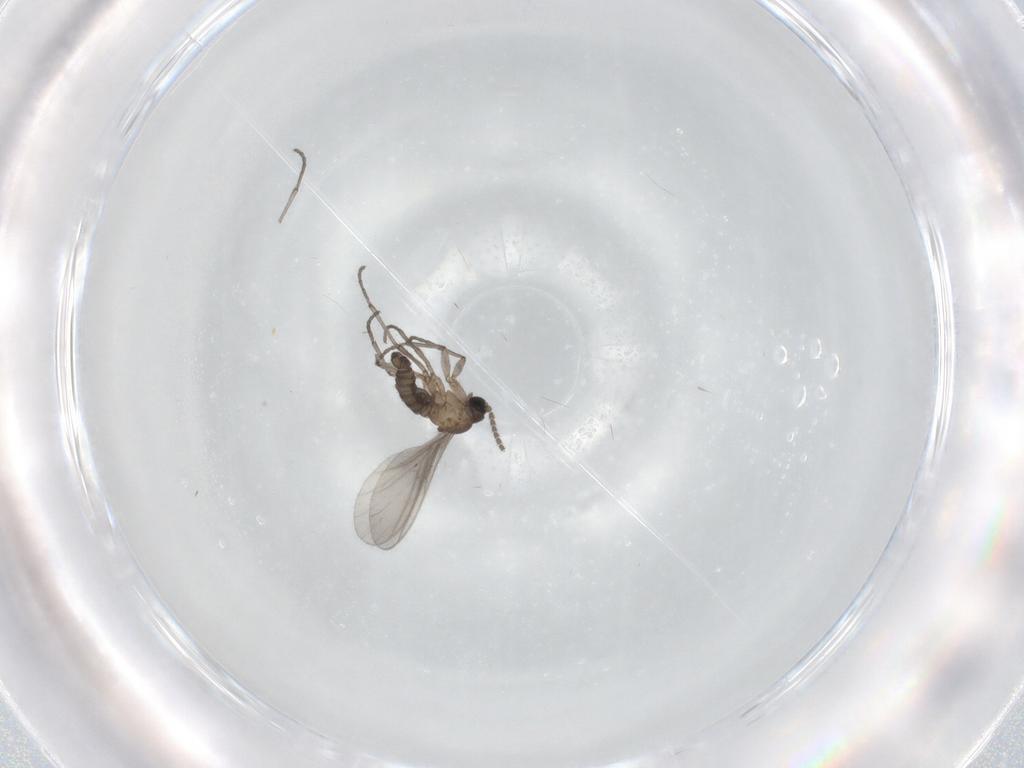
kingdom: Animalia
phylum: Arthropoda
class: Insecta
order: Diptera
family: Sciaridae
